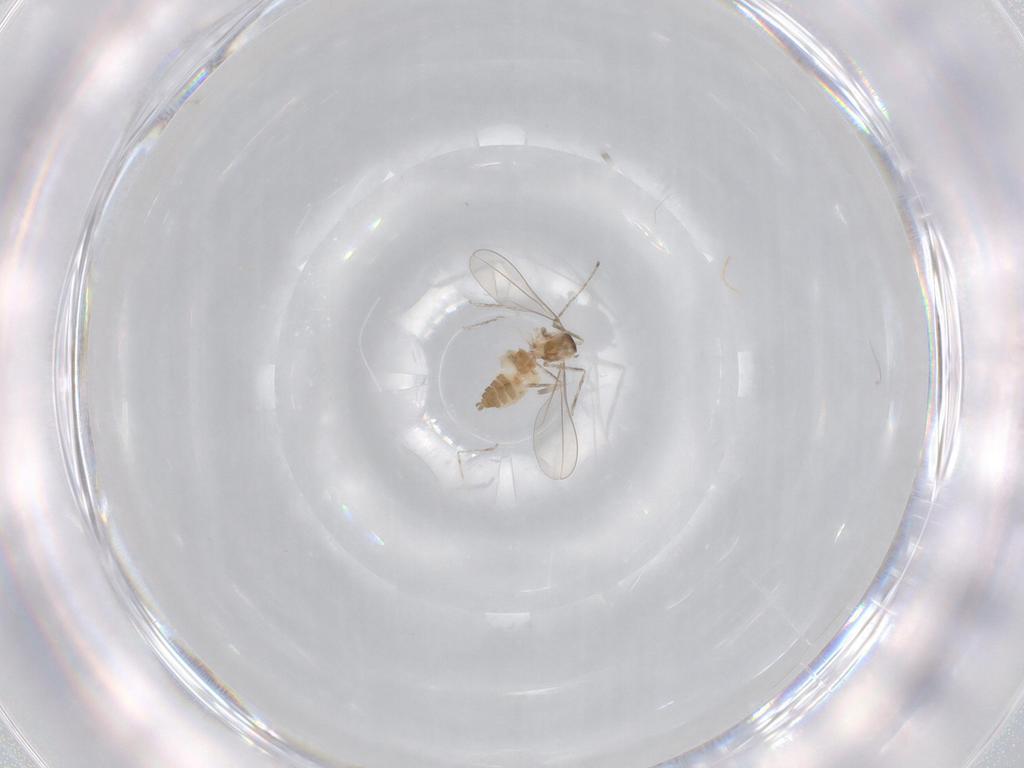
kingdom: Animalia
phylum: Arthropoda
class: Insecta
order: Diptera
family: Cecidomyiidae
